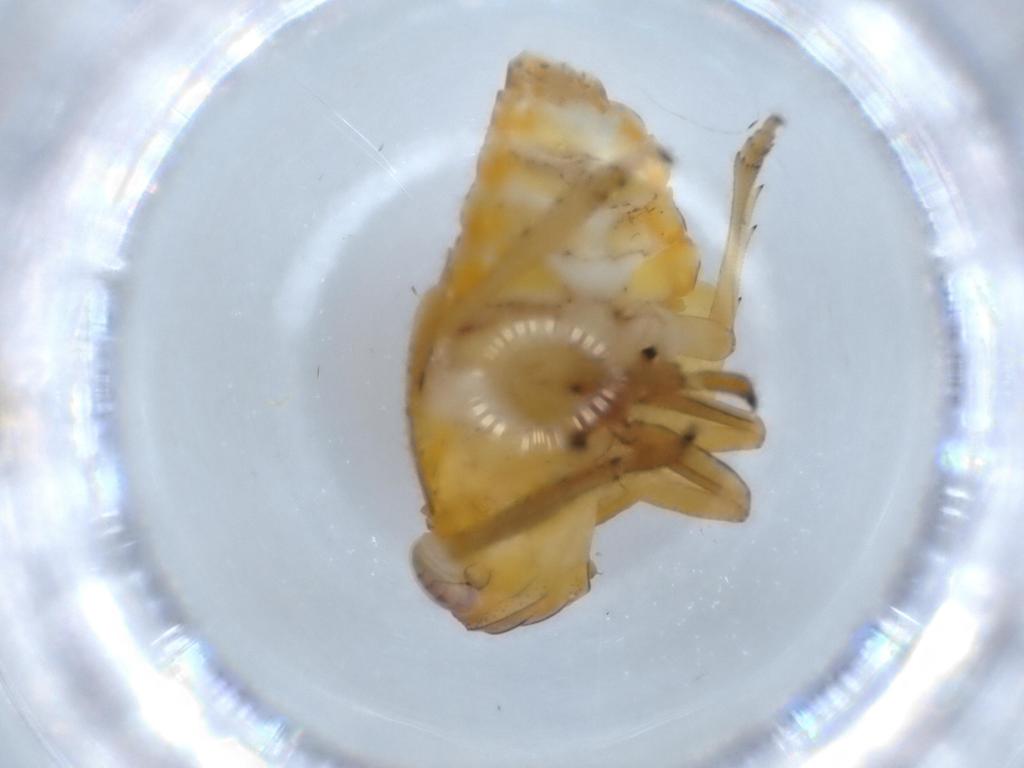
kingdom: Animalia
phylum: Arthropoda
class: Insecta
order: Hemiptera
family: Issidae
